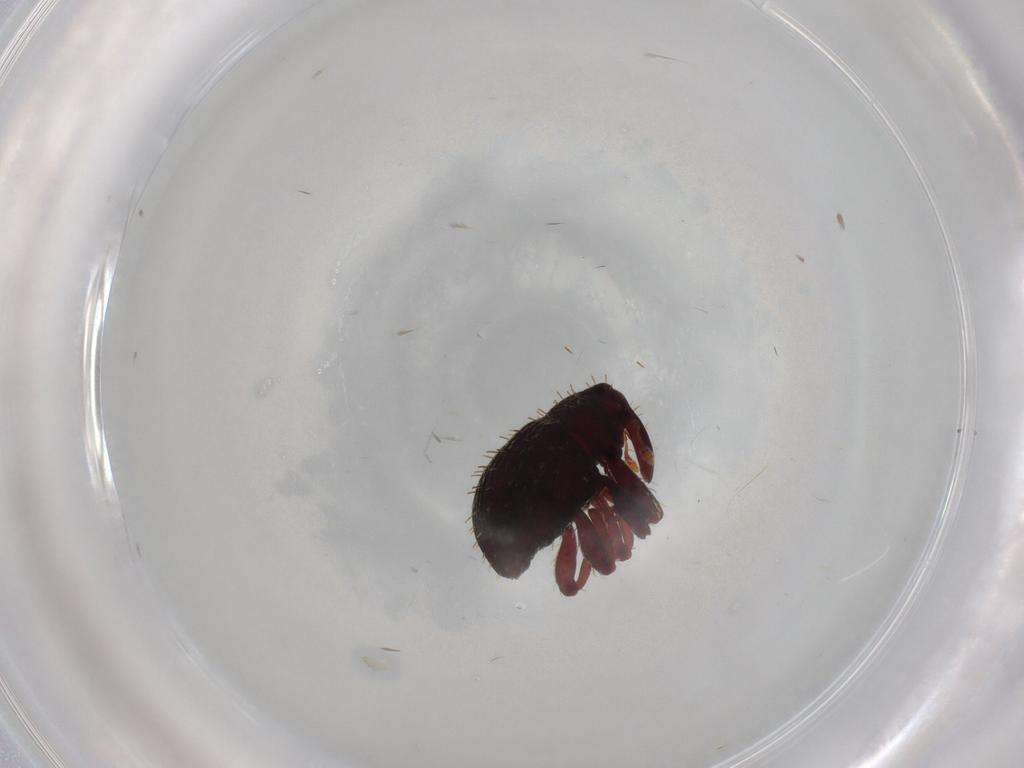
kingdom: Animalia
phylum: Arthropoda
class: Insecta
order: Coleoptera
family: Curculionidae
